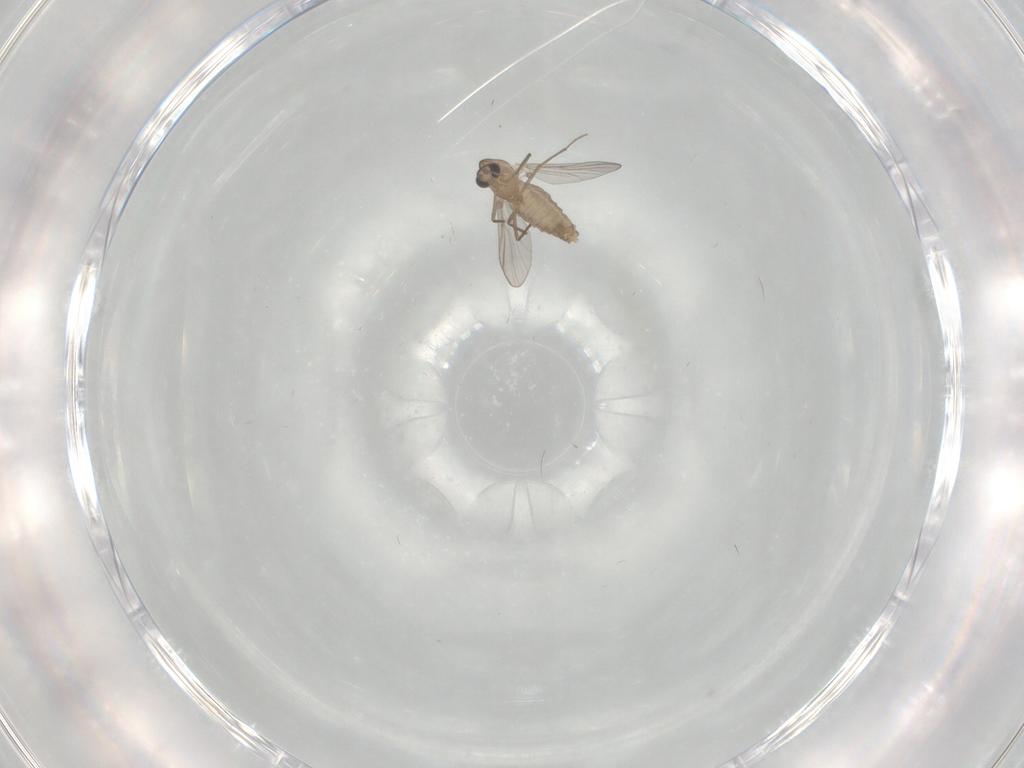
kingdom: Animalia
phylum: Arthropoda
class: Insecta
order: Diptera
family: Chironomidae
